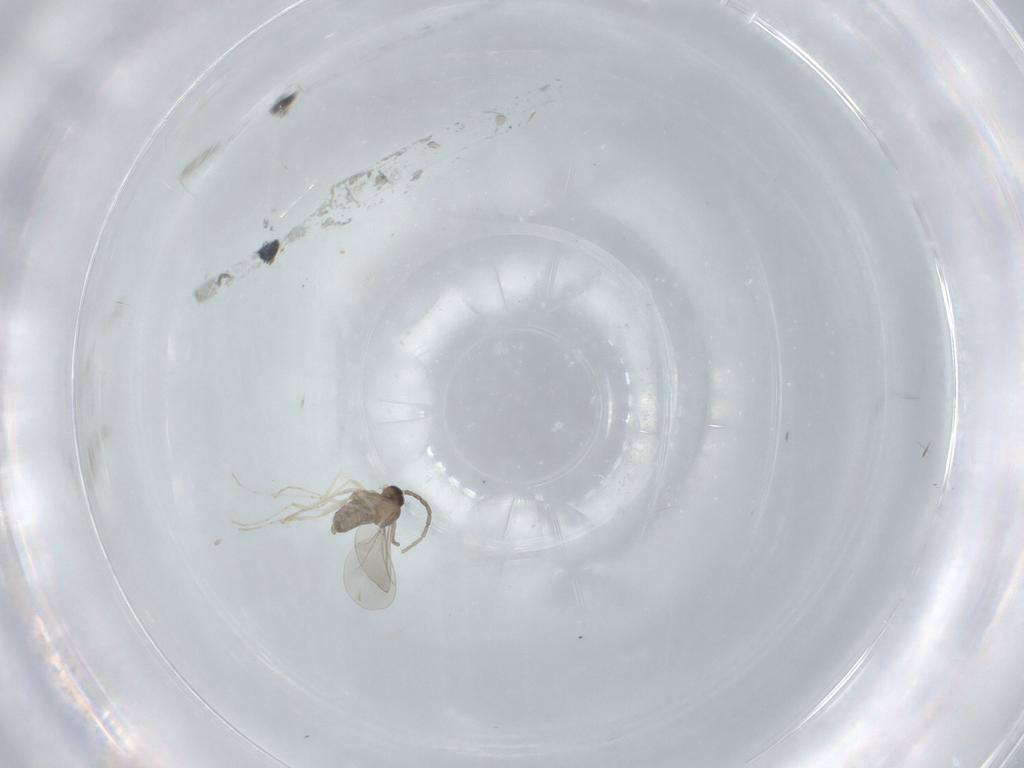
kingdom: Animalia
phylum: Arthropoda
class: Insecta
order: Diptera
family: Cecidomyiidae
